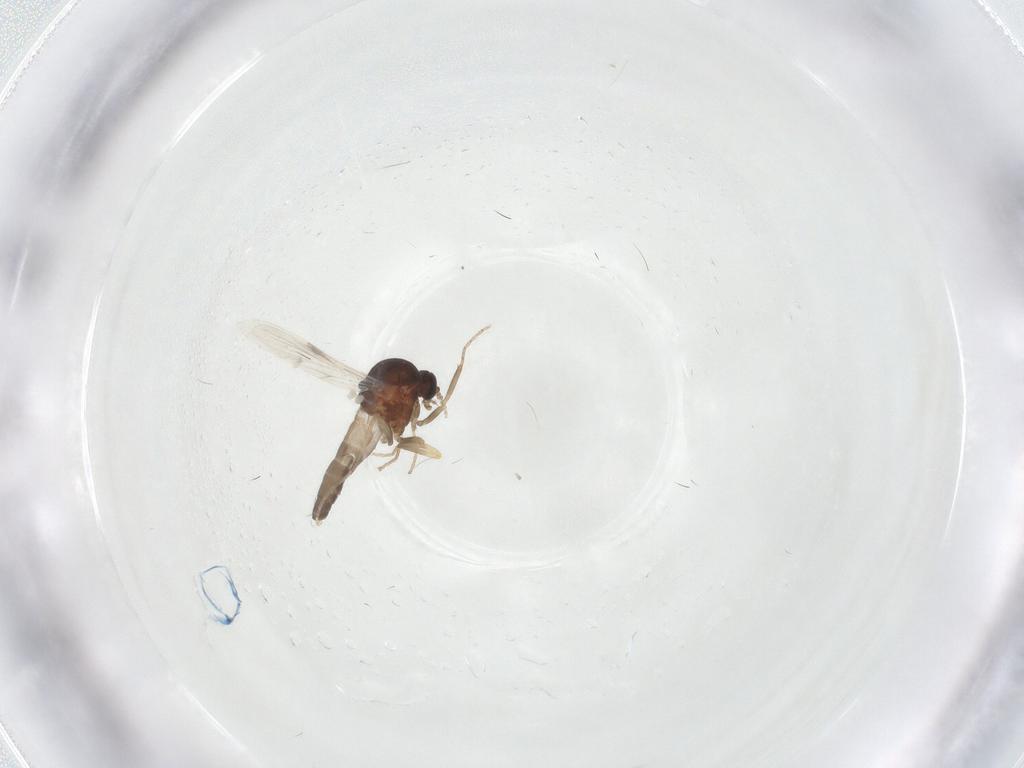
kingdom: Animalia
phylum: Arthropoda
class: Insecta
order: Diptera
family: Ceratopogonidae
